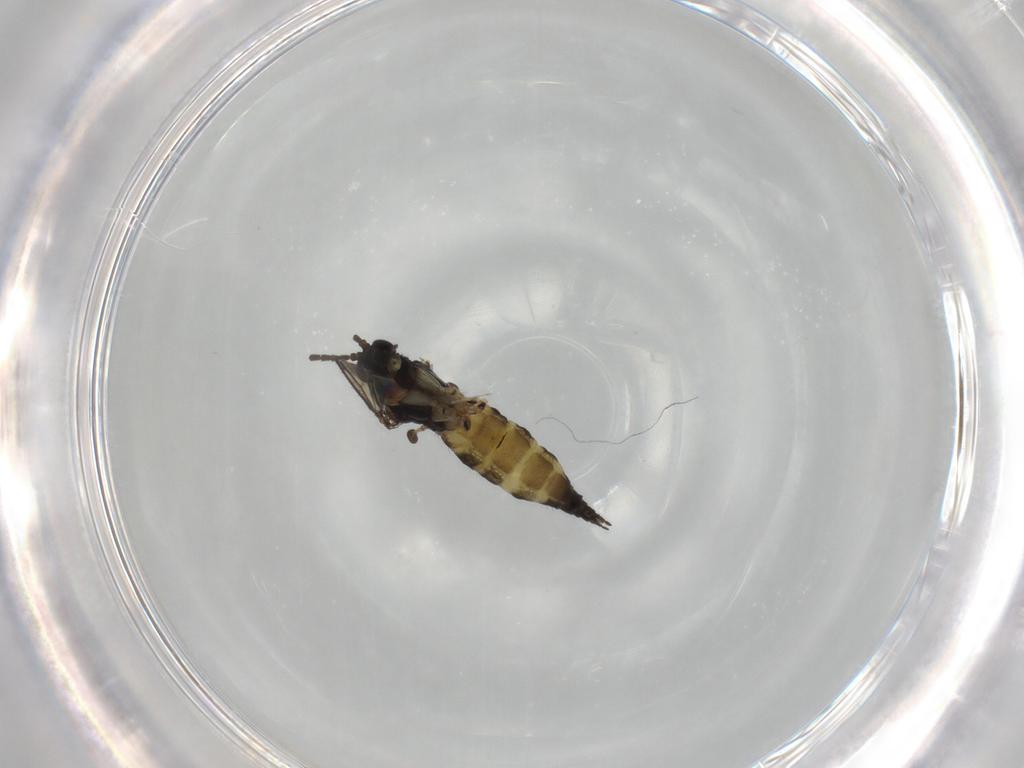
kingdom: Animalia
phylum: Arthropoda
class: Insecta
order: Diptera
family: Sciaridae
